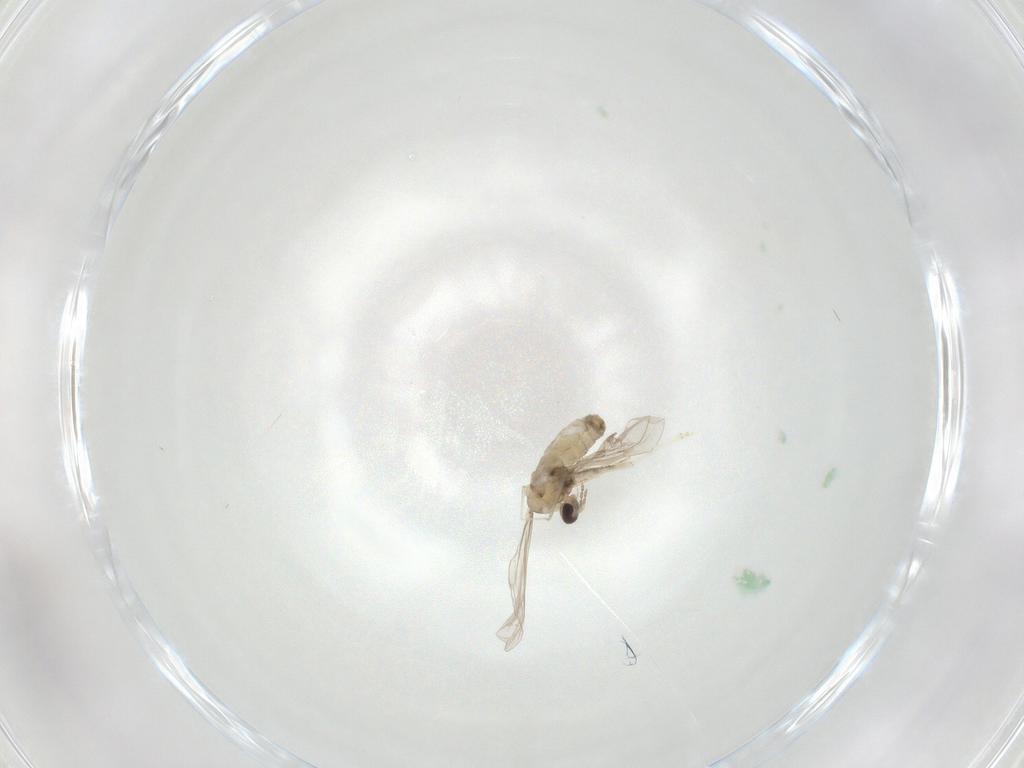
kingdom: Animalia
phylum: Arthropoda
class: Insecta
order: Diptera
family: Sciaridae
